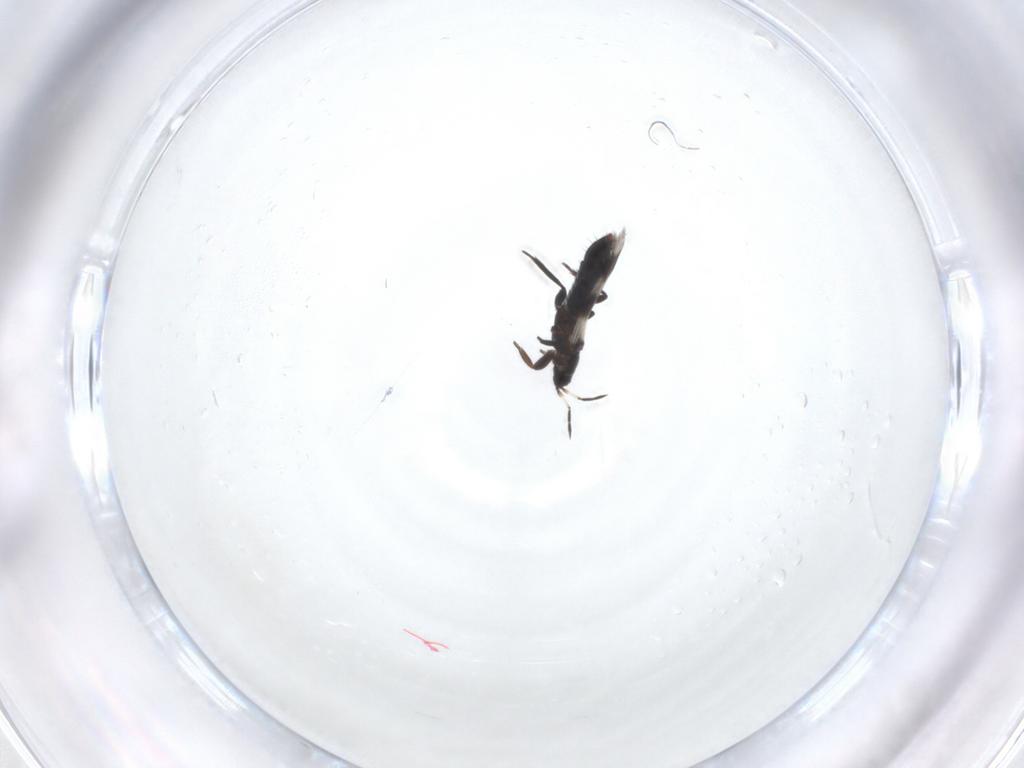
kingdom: Animalia
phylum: Arthropoda
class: Insecta
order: Thysanoptera
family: Aeolothripidae
